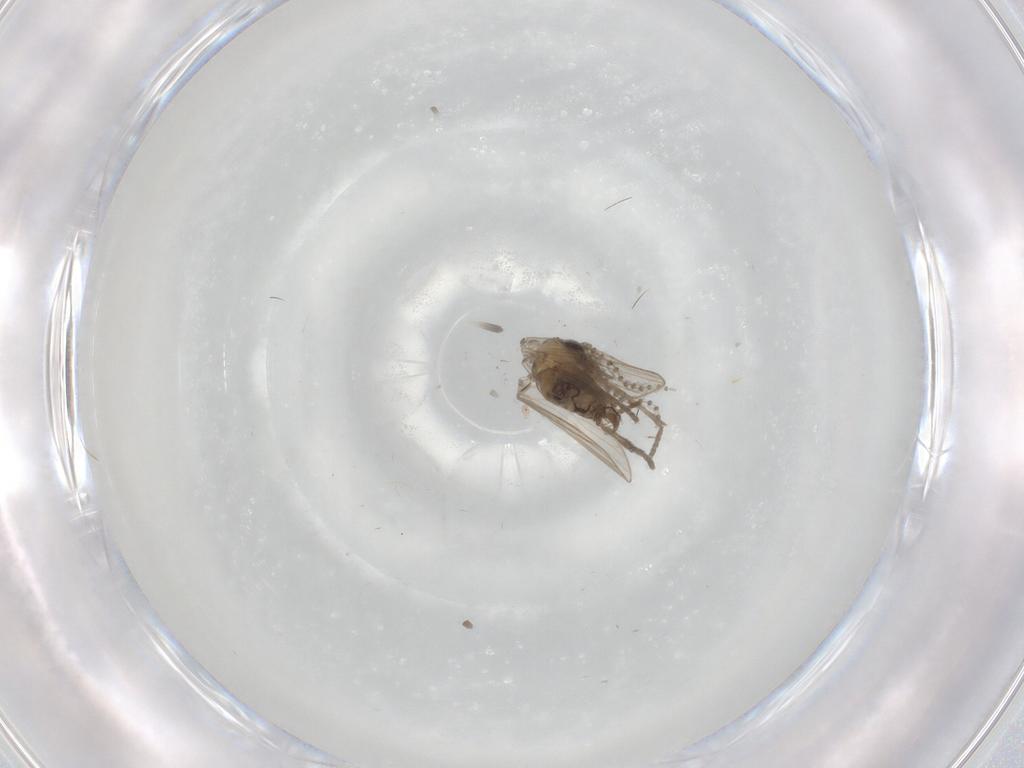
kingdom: Animalia
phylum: Arthropoda
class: Insecta
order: Diptera
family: Psychodidae
